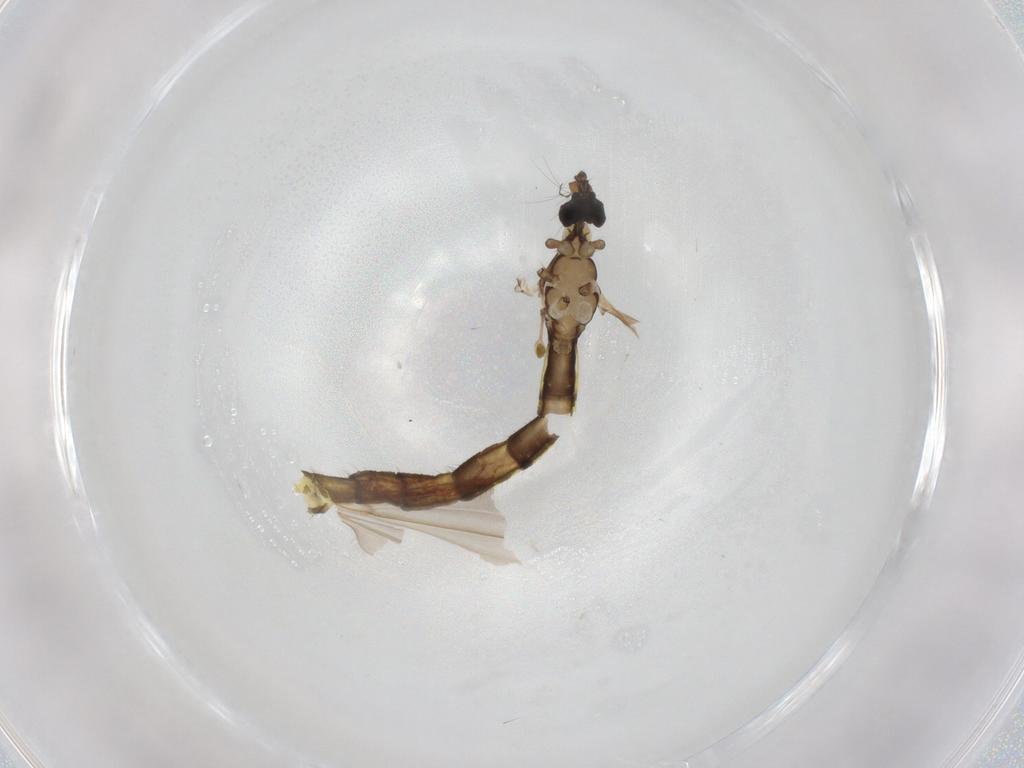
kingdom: Animalia
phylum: Arthropoda
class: Insecta
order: Diptera
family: Chironomidae
